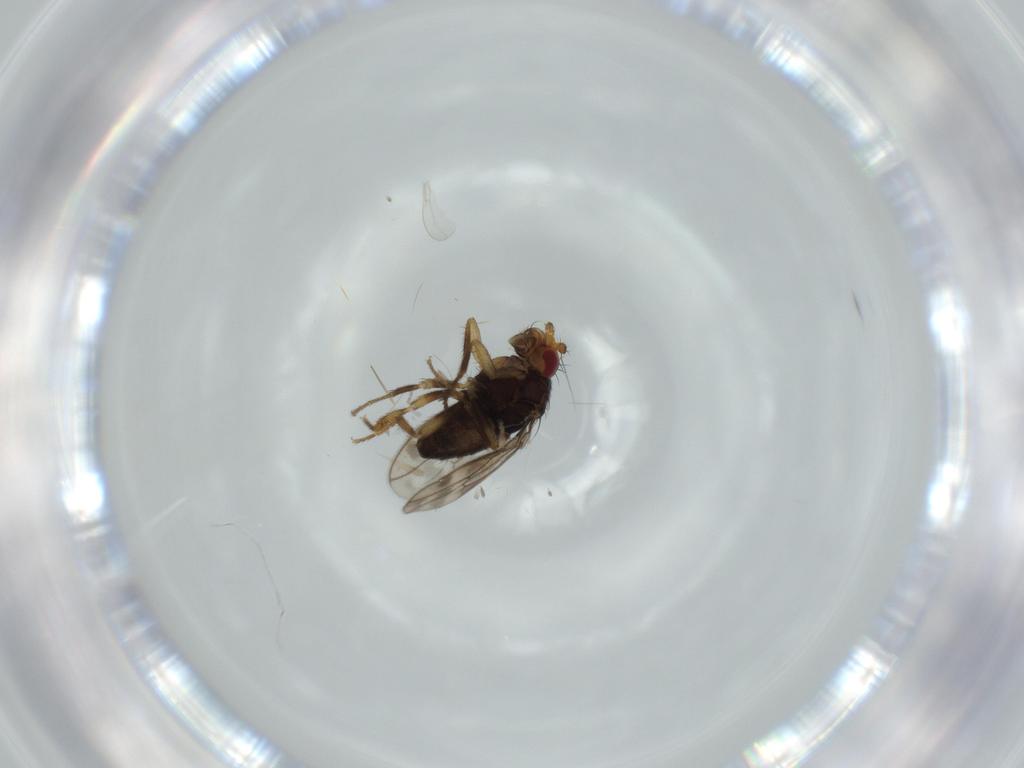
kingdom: Animalia
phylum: Arthropoda
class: Insecta
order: Diptera
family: Sphaeroceridae
